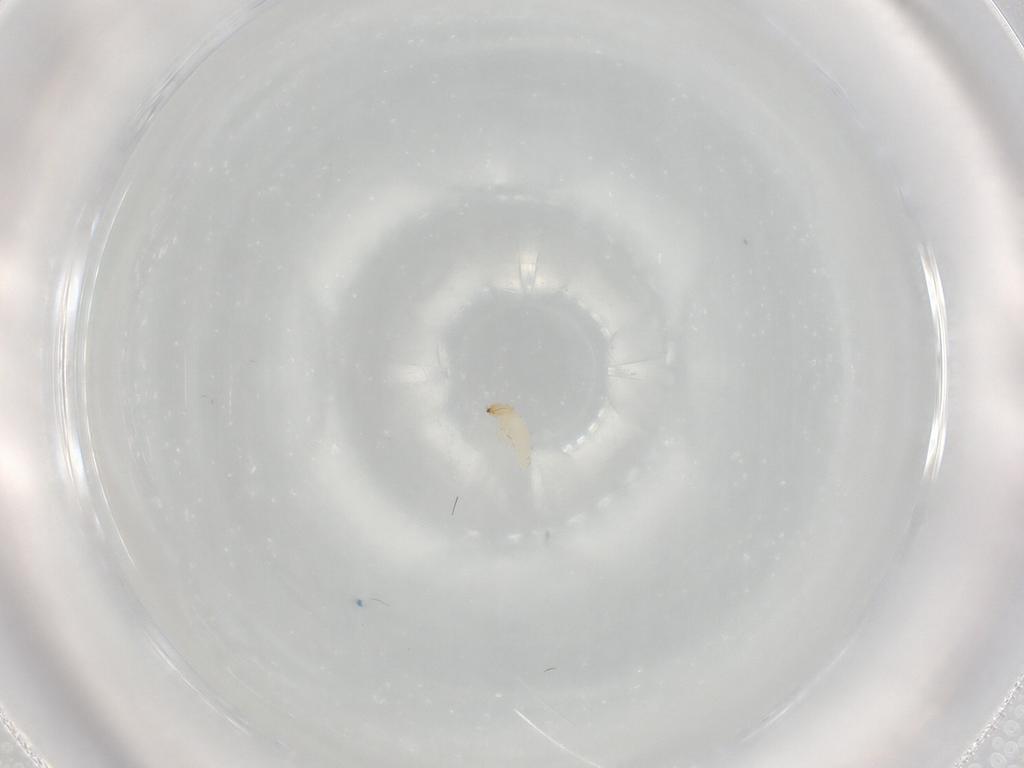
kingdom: Animalia
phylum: Arthropoda
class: Insecta
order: Coleoptera
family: Chrysomelidae
